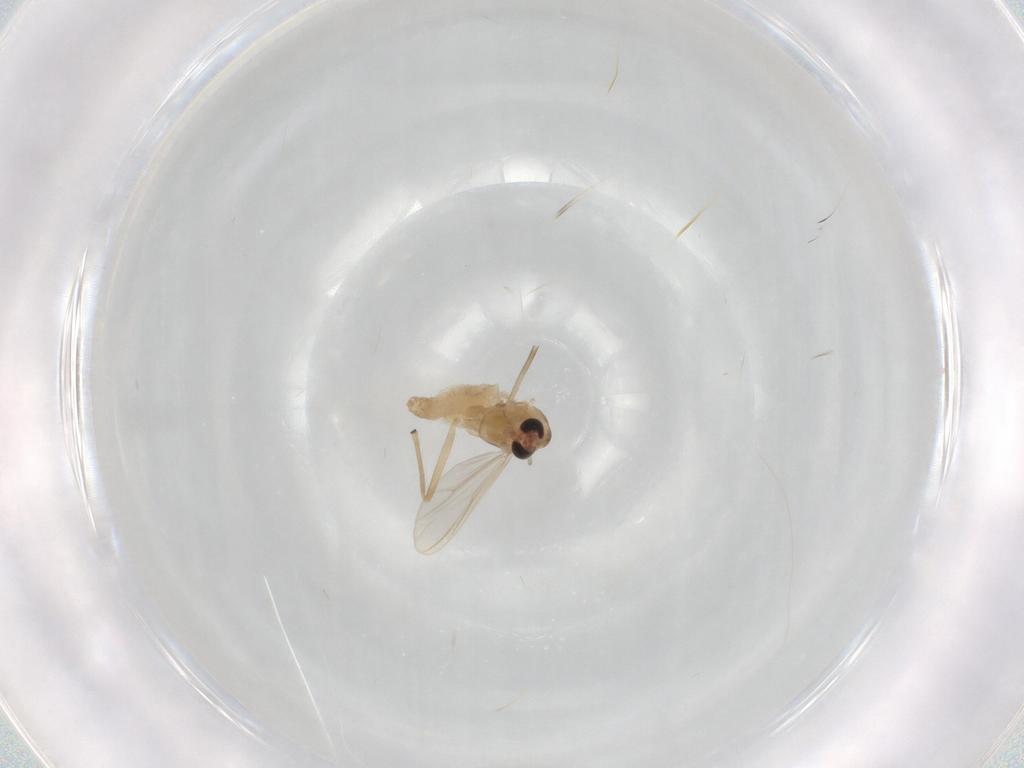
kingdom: Animalia
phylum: Arthropoda
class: Insecta
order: Diptera
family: Chironomidae
